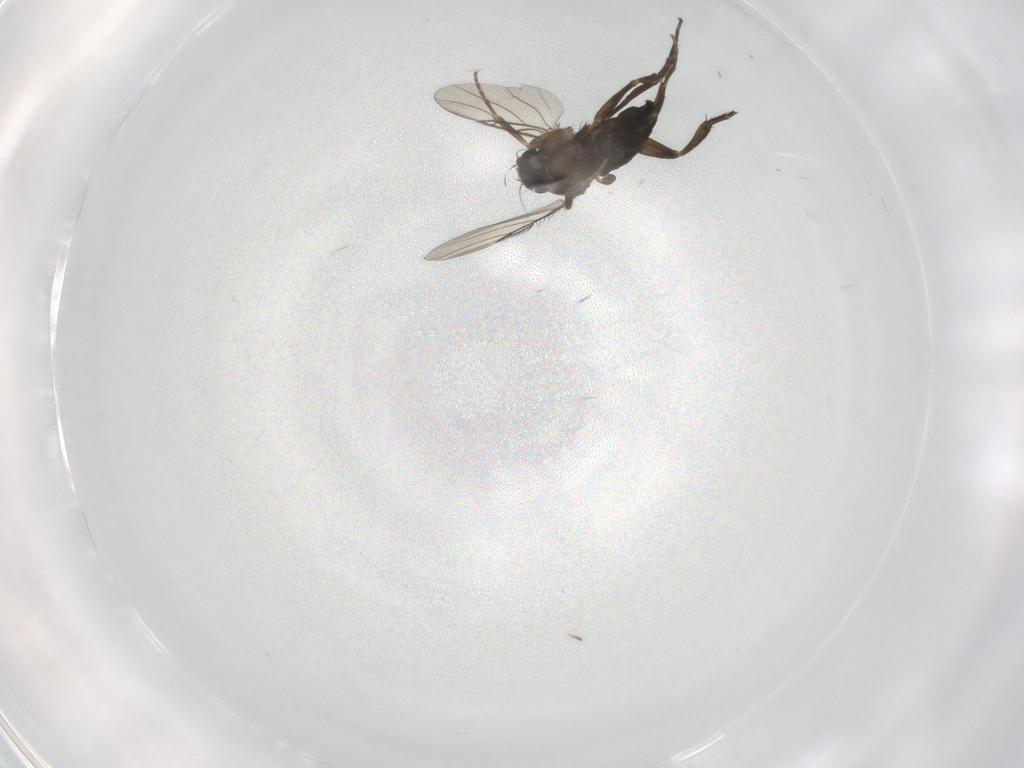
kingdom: Animalia
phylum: Arthropoda
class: Insecta
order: Diptera
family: Phoridae
